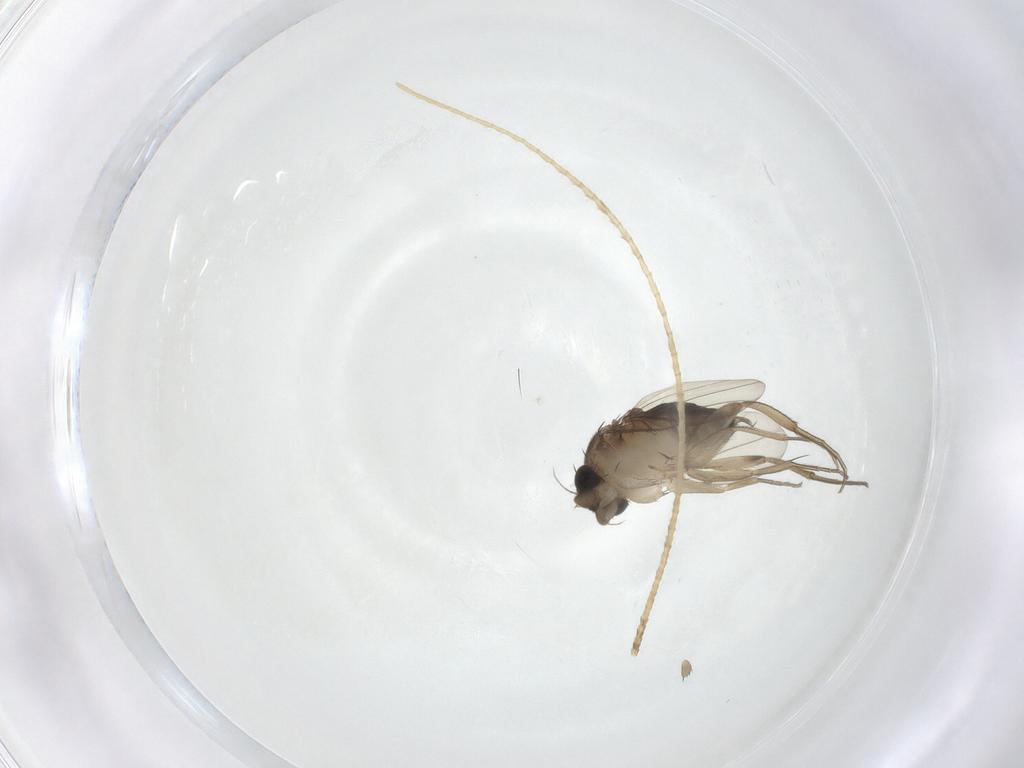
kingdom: Animalia
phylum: Arthropoda
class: Insecta
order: Diptera
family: Phoridae
